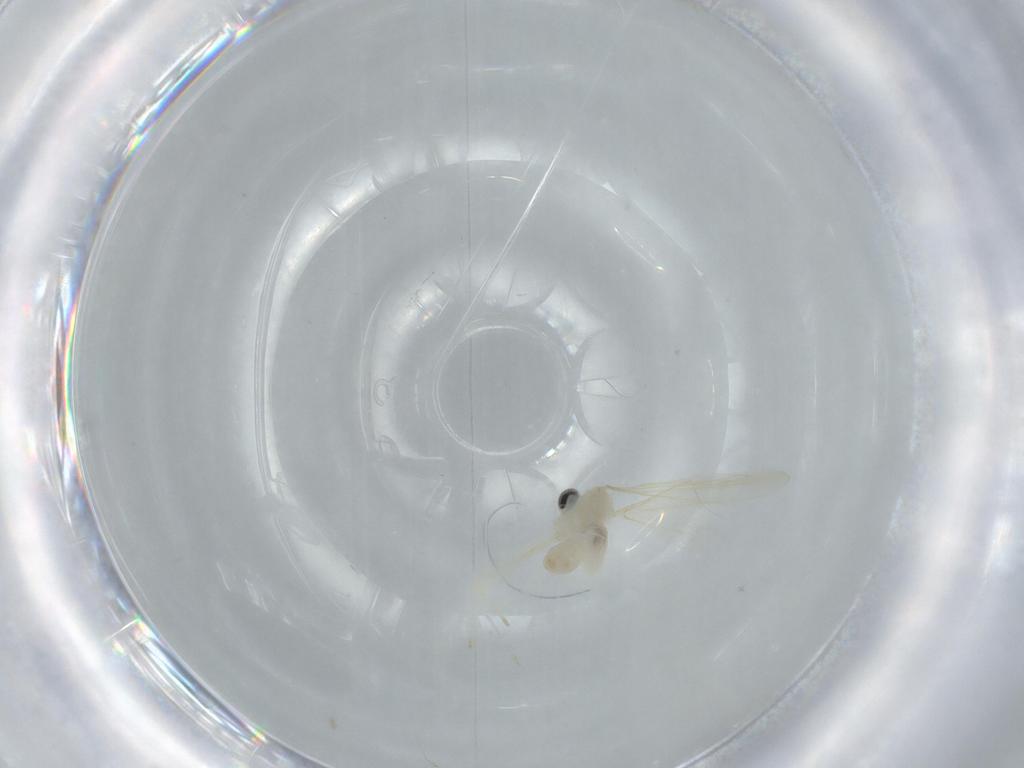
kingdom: Animalia
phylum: Arthropoda
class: Insecta
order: Diptera
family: Cecidomyiidae
